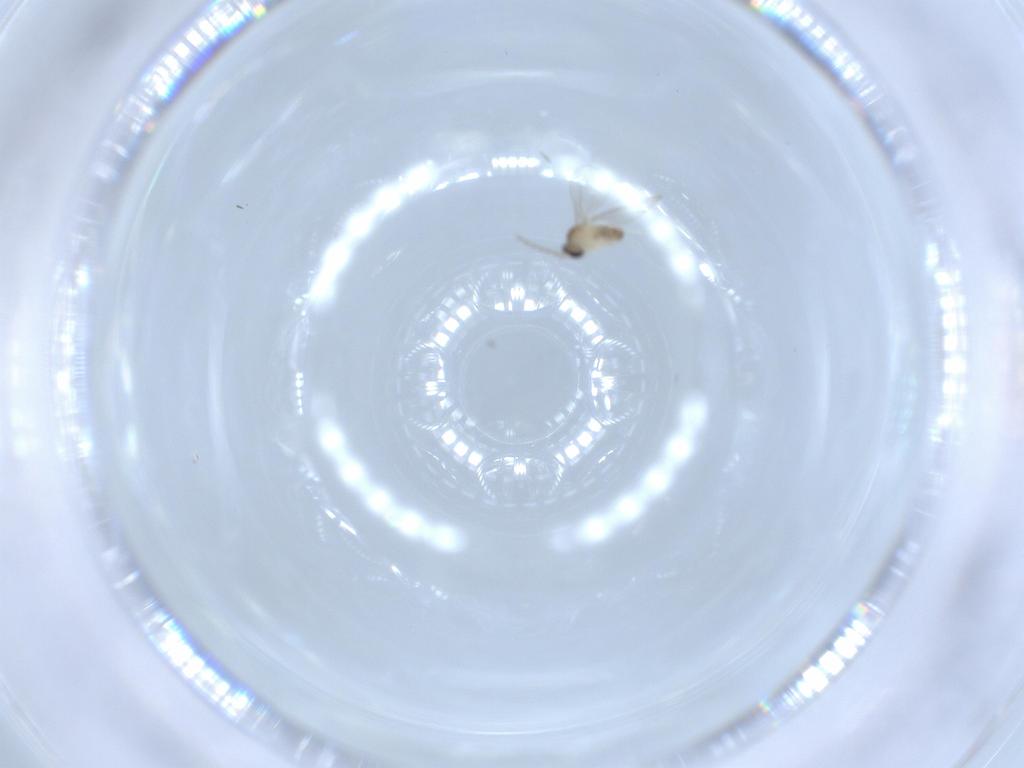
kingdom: Animalia
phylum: Arthropoda
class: Insecta
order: Diptera
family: Cecidomyiidae
